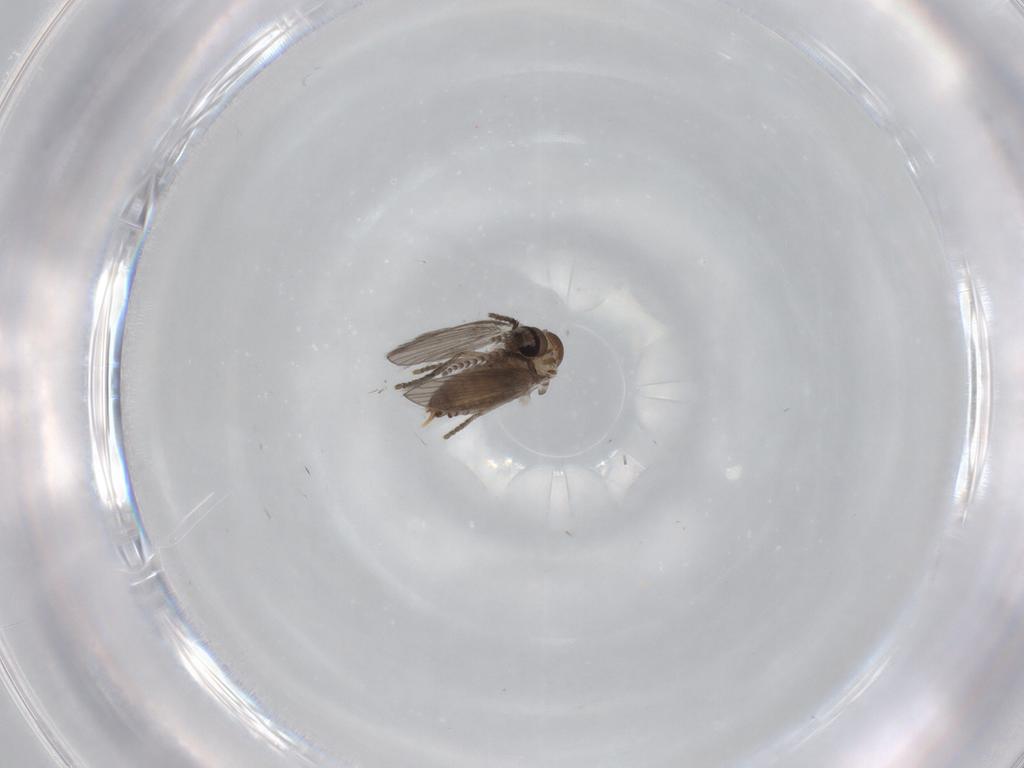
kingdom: Animalia
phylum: Arthropoda
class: Insecta
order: Diptera
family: Psychodidae
